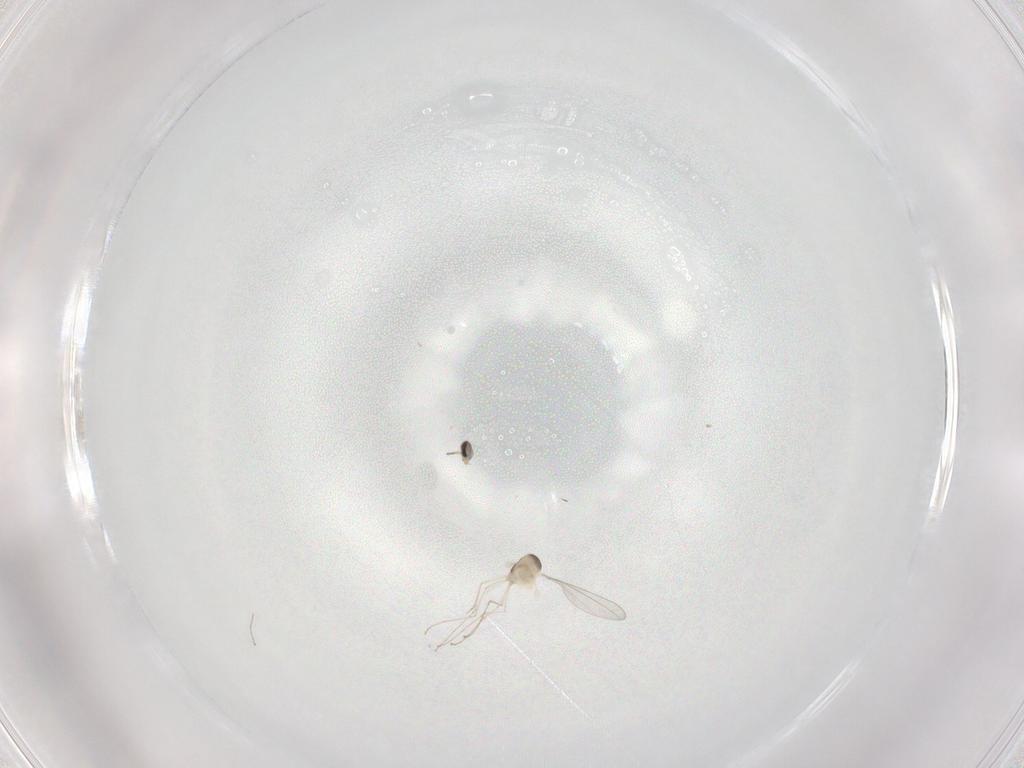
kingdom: Animalia
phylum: Arthropoda
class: Insecta
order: Diptera
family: Cecidomyiidae
